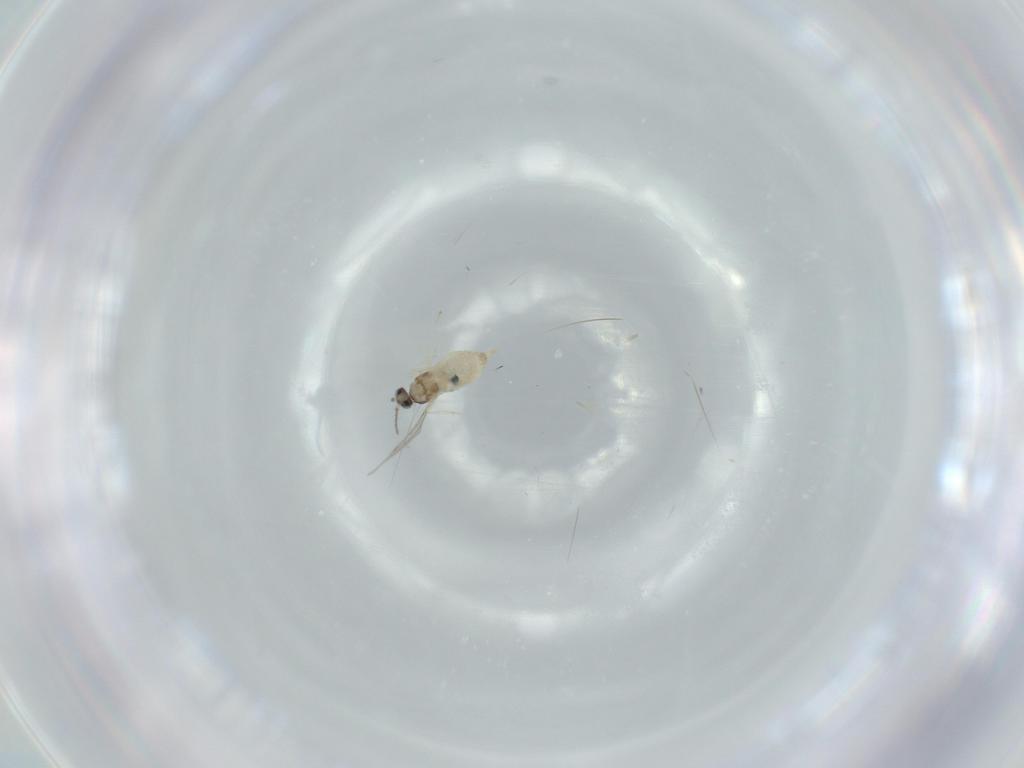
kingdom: Animalia
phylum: Arthropoda
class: Insecta
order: Diptera
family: Cecidomyiidae
